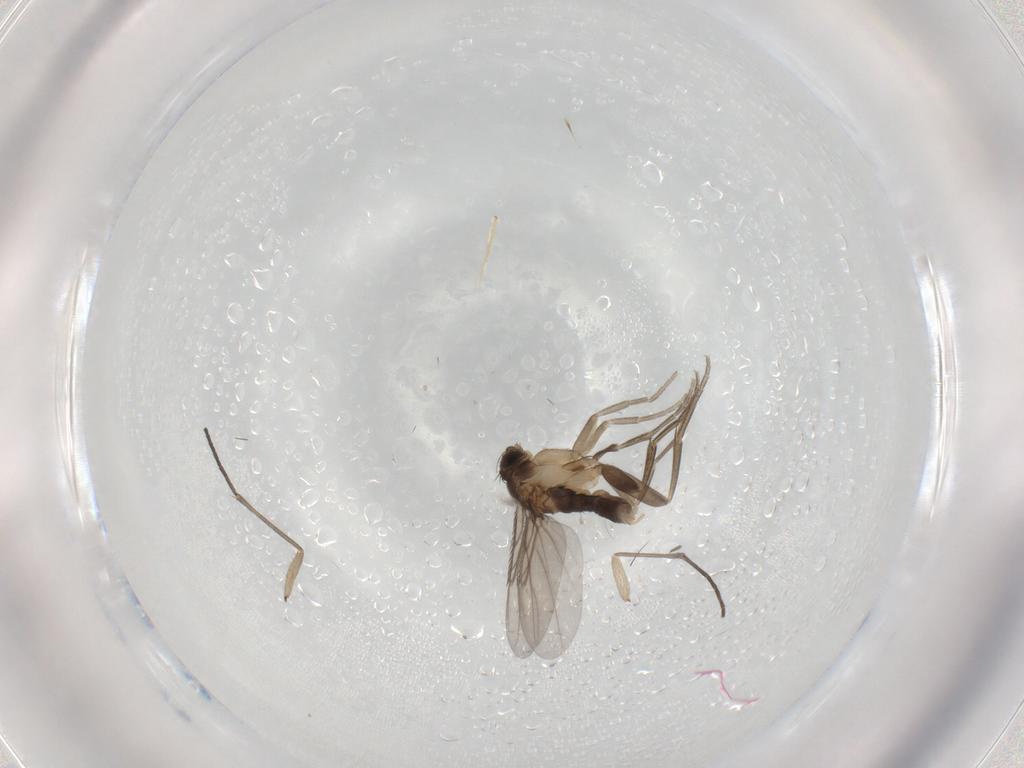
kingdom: Animalia
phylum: Arthropoda
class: Insecta
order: Diptera
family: Phoridae
